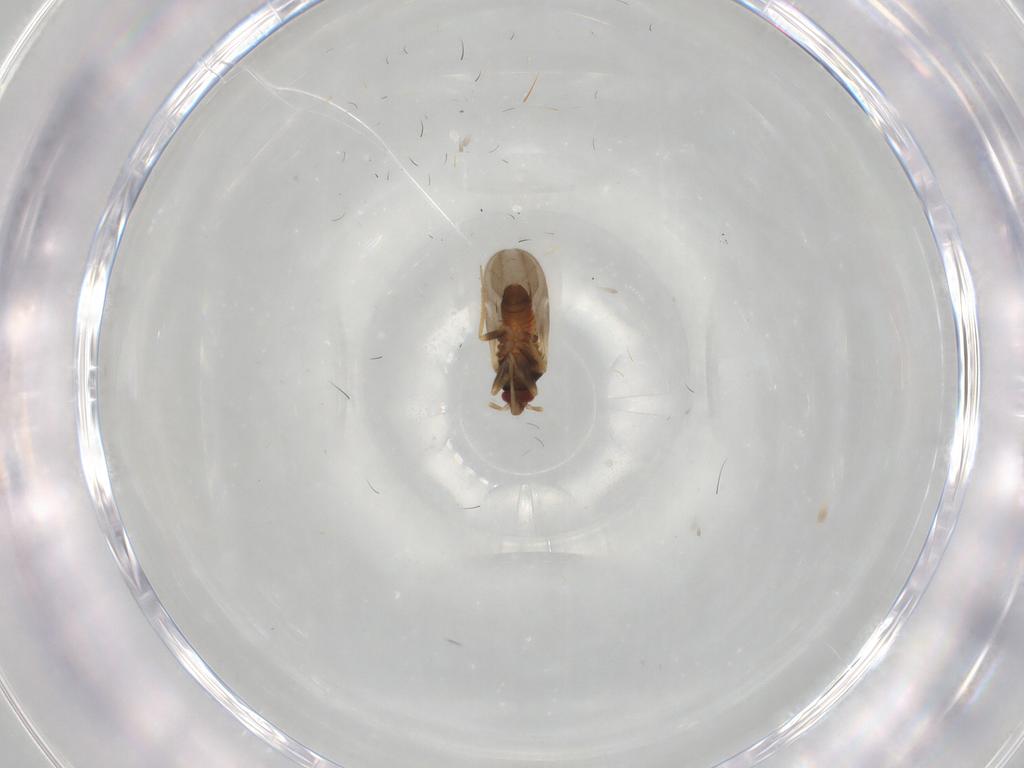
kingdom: Animalia
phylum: Arthropoda
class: Insecta
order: Hemiptera
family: Ceratocombidae
